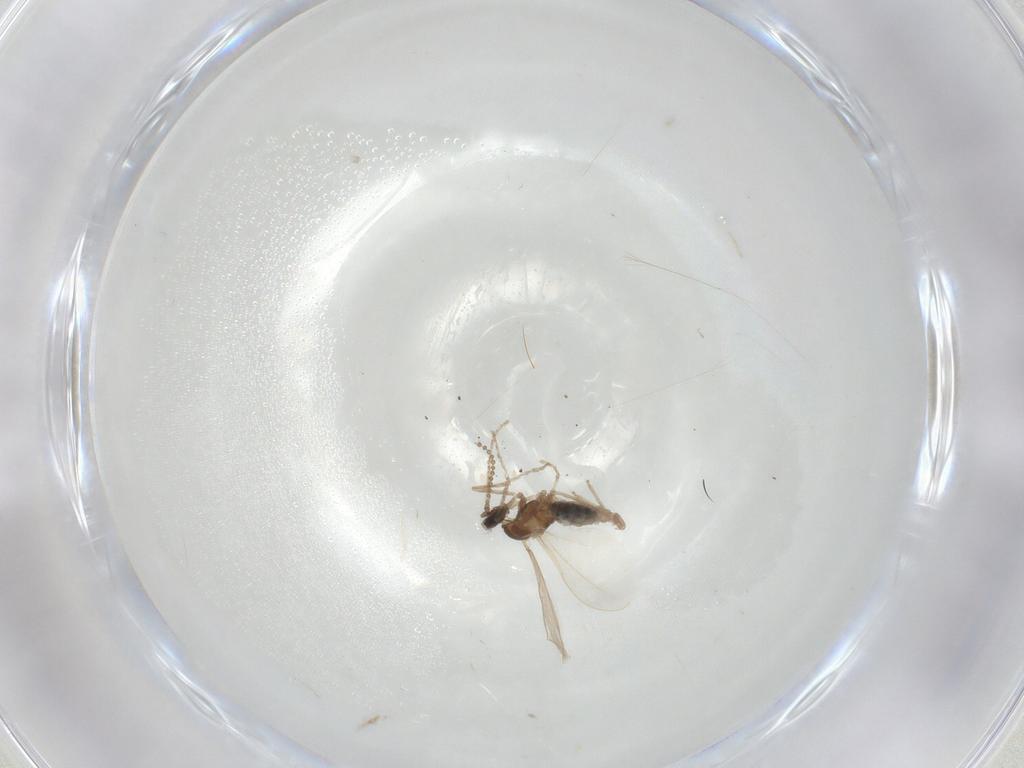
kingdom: Animalia
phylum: Arthropoda
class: Insecta
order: Diptera
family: Cecidomyiidae
